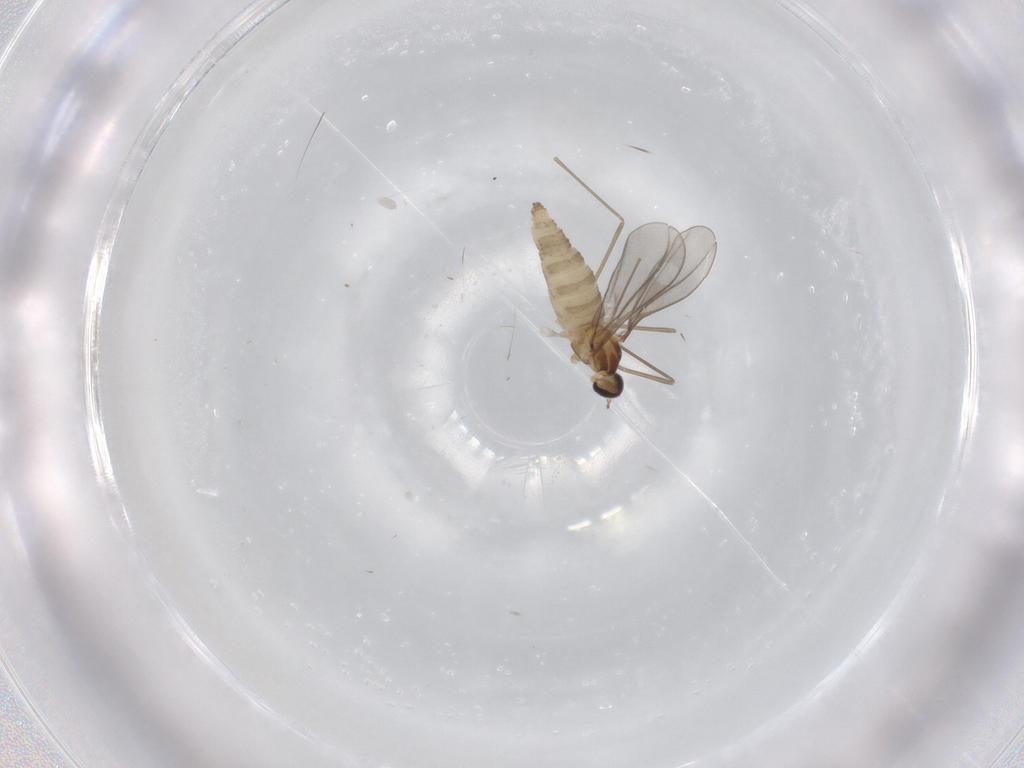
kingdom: Animalia
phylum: Arthropoda
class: Insecta
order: Diptera
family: Cecidomyiidae
